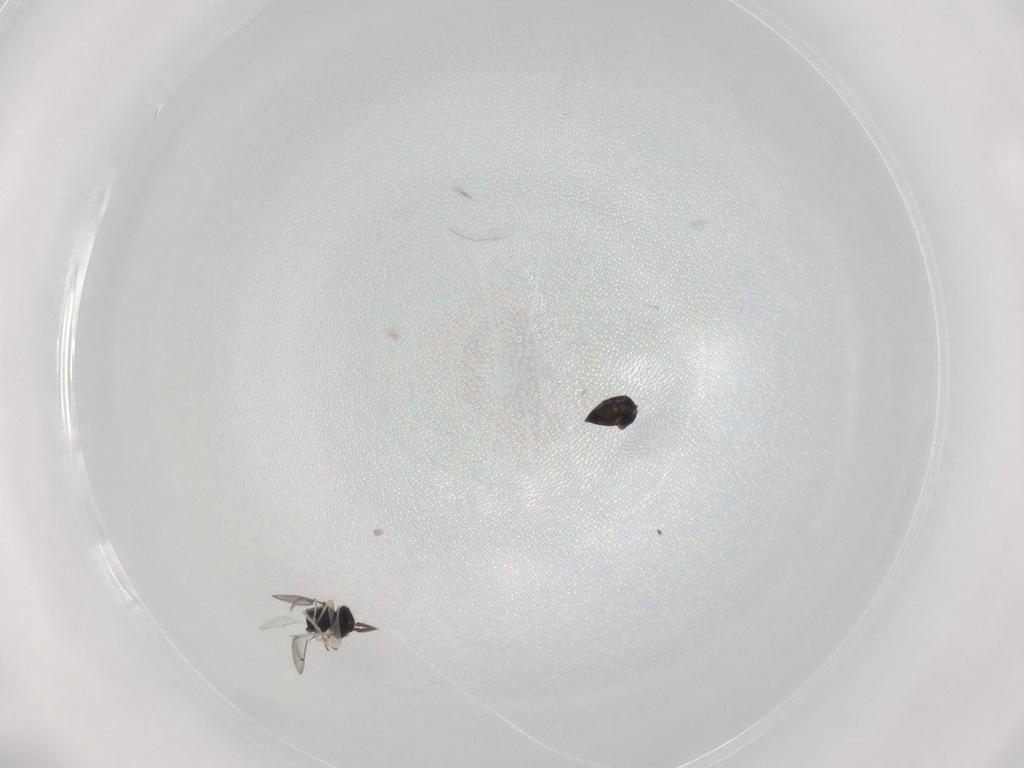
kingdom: Animalia
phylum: Arthropoda
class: Insecta
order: Hymenoptera
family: Eulophidae
